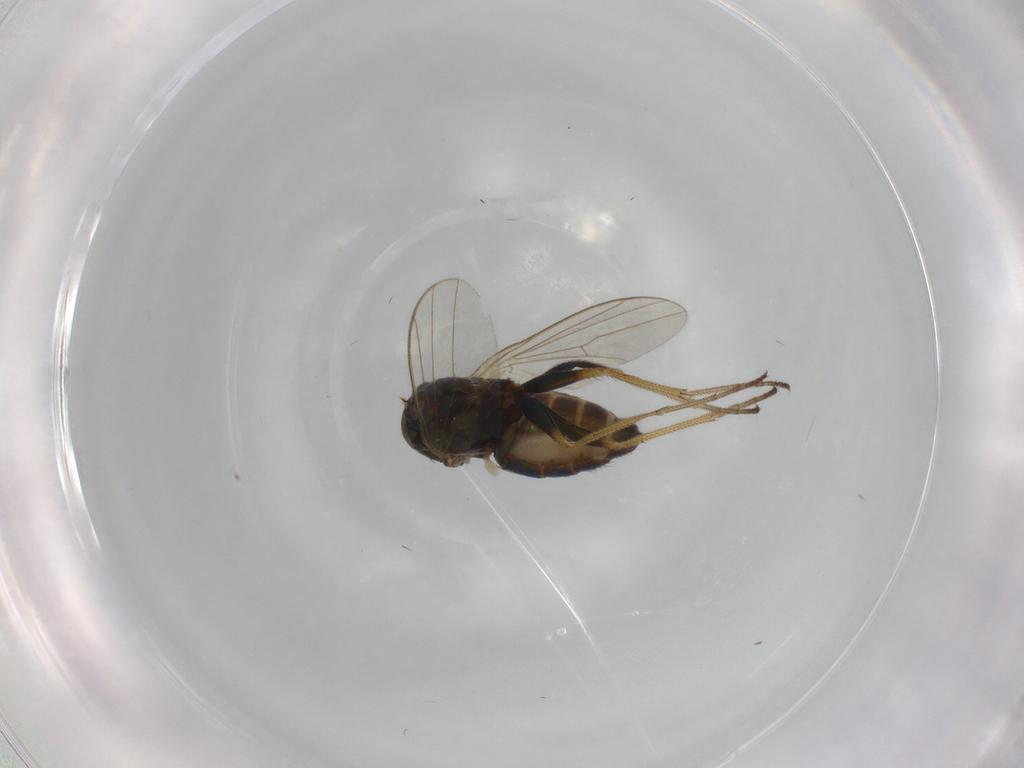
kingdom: Animalia
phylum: Arthropoda
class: Insecta
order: Diptera
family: Dolichopodidae
